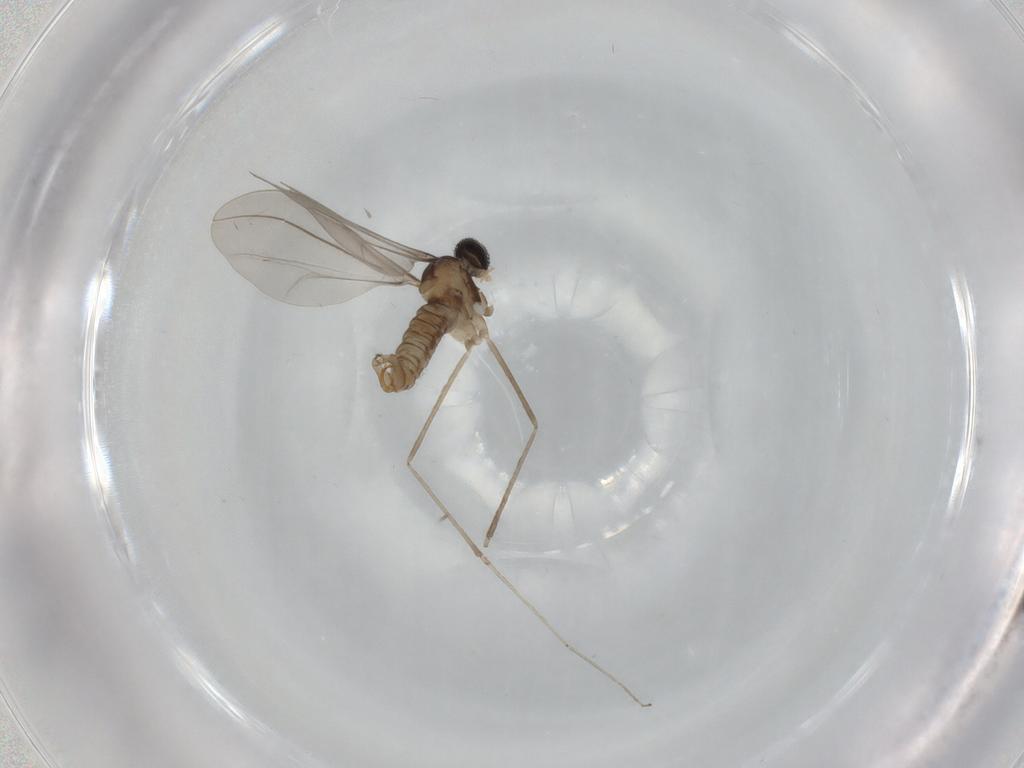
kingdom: Animalia
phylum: Arthropoda
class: Insecta
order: Diptera
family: Cecidomyiidae
